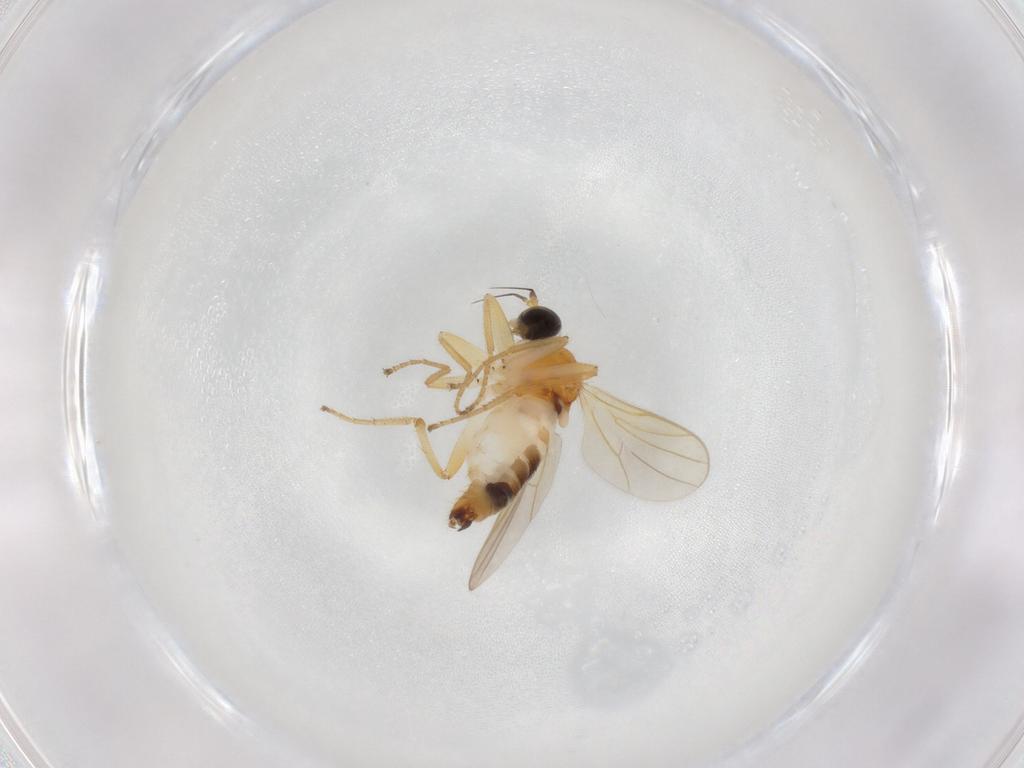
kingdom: Animalia
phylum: Arthropoda
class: Insecta
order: Diptera
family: Hybotidae
